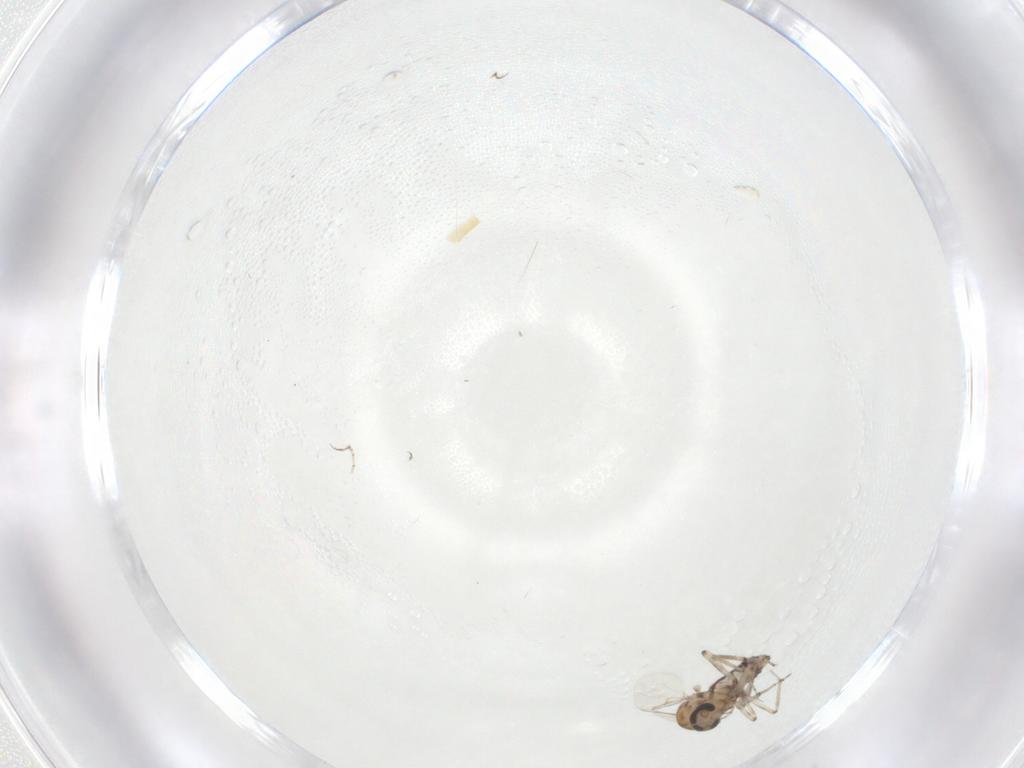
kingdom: Animalia
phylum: Arthropoda
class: Insecta
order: Diptera
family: Ceratopogonidae
